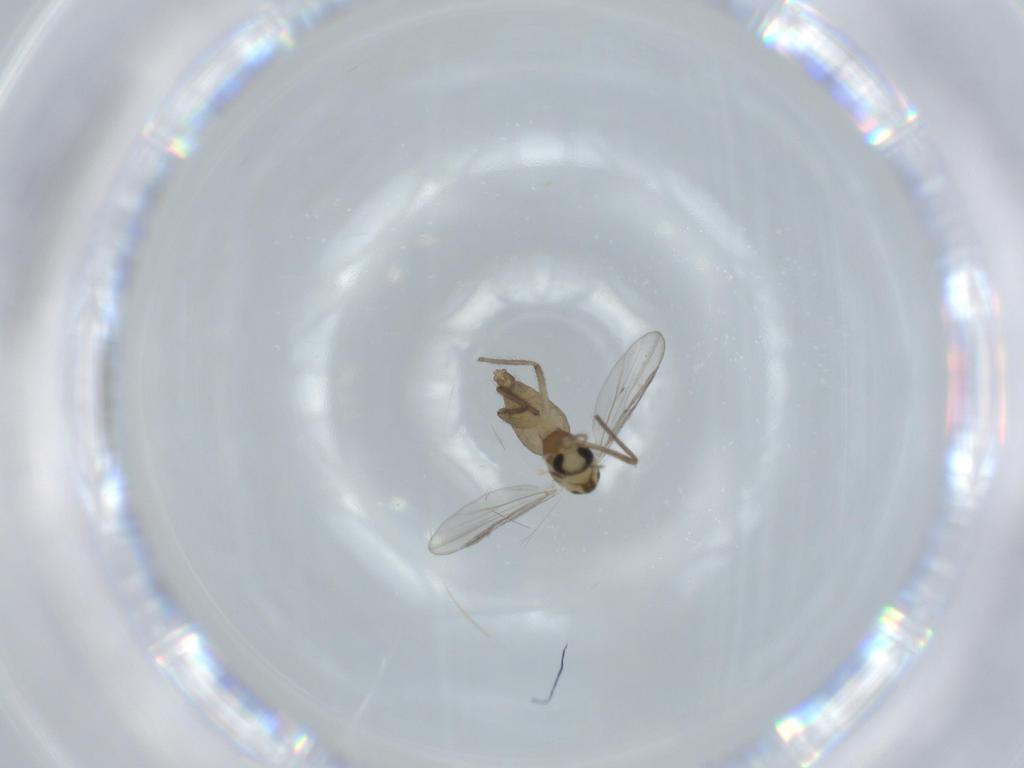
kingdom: Animalia
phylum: Arthropoda
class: Insecta
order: Diptera
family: Chironomidae
